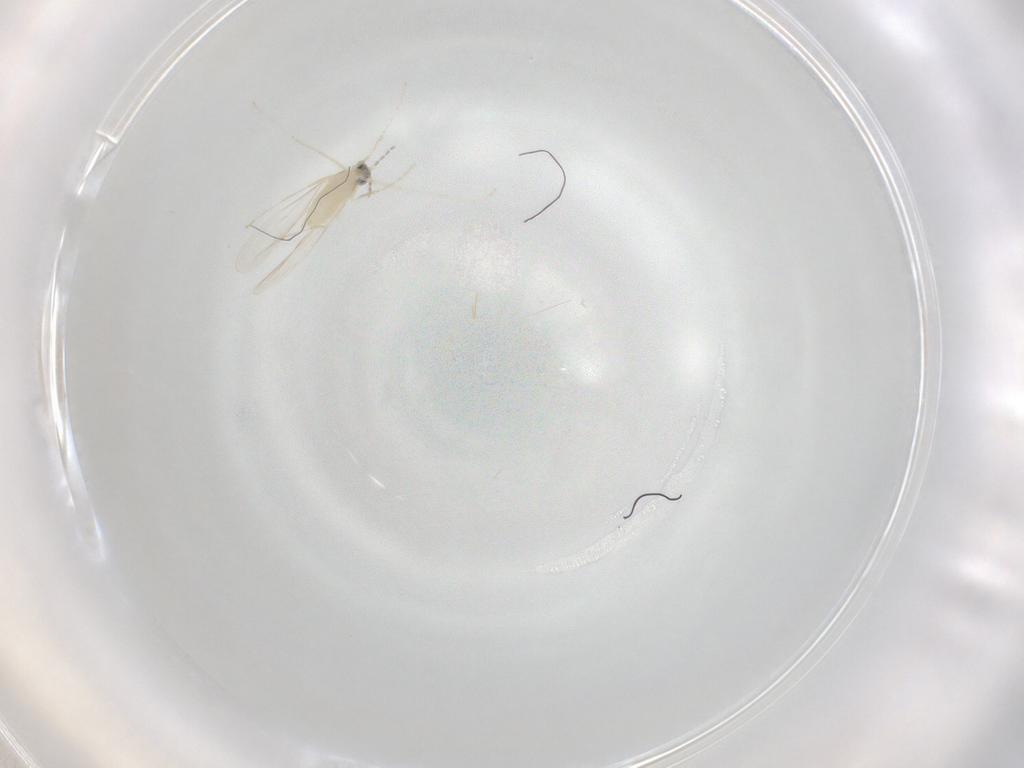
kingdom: Animalia
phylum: Arthropoda
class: Insecta
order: Diptera
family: Cecidomyiidae
